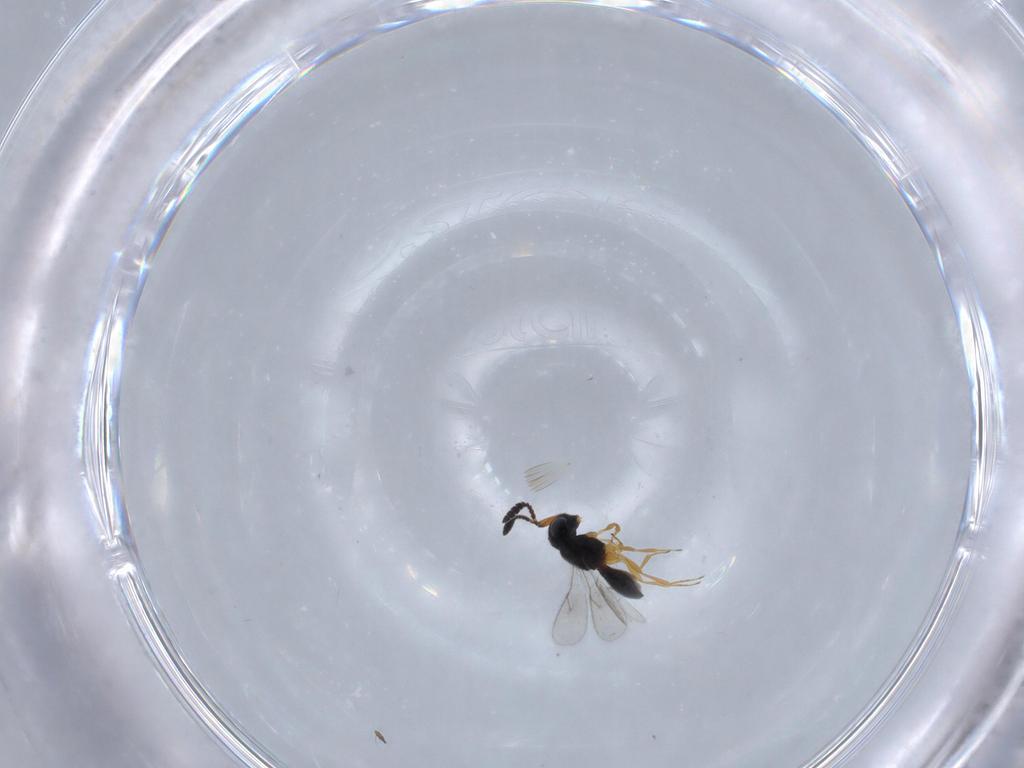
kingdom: Animalia
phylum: Arthropoda
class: Insecta
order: Hymenoptera
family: Scelionidae
